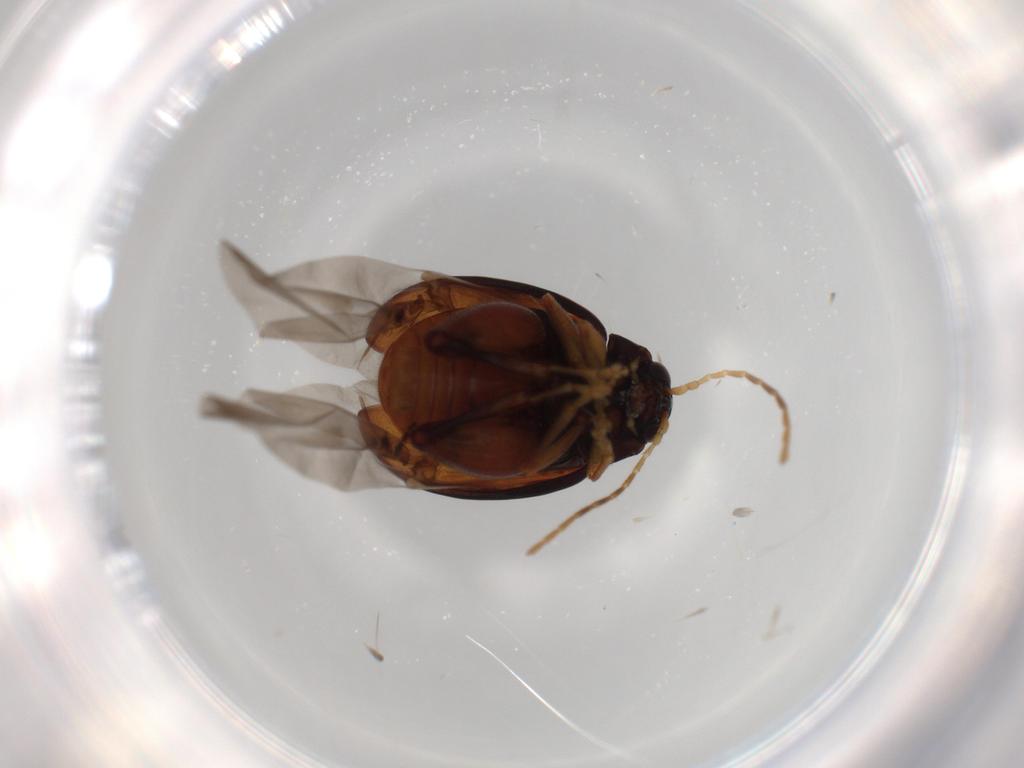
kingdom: Animalia
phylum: Arthropoda
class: Insecta
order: Coleoptera
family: Chrysomelidae
